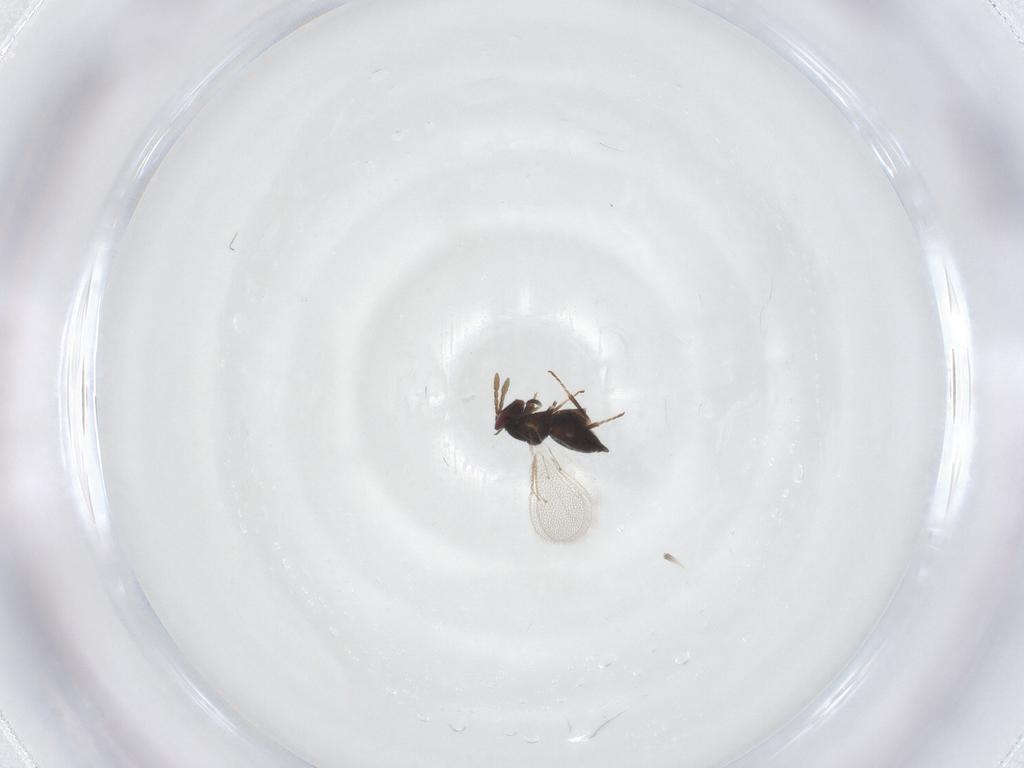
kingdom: Animalia
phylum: Arthropoda
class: Insecta
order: Hymenoptera
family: Eulophidae
